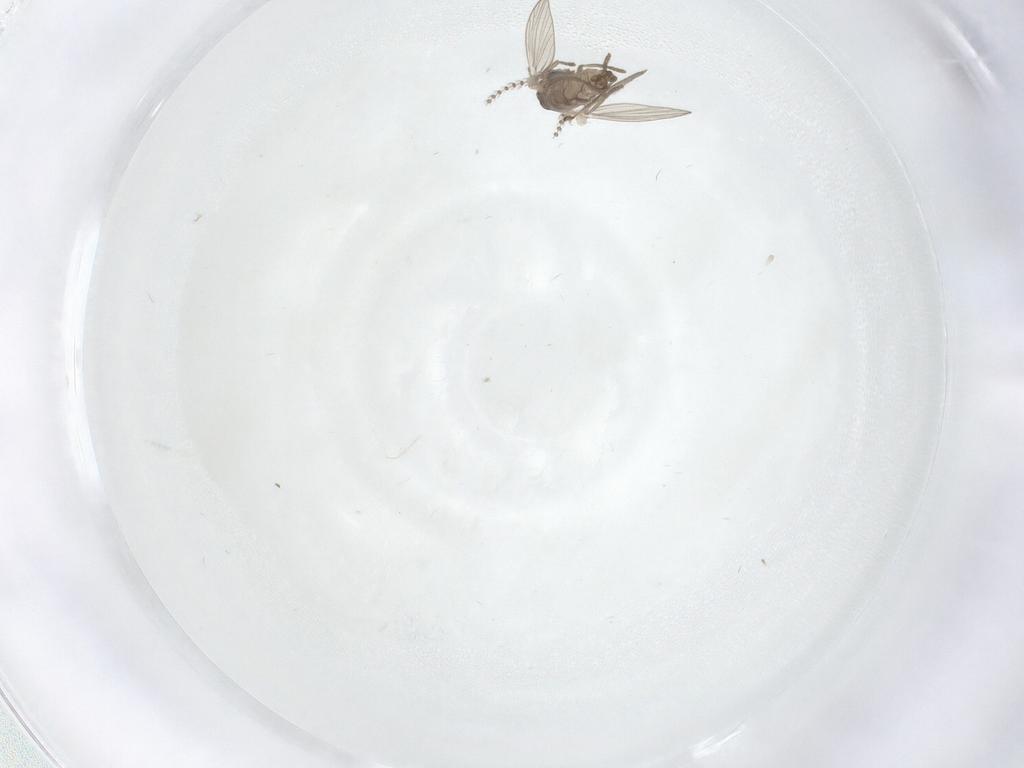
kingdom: Animalia
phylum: Arthropoda
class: Insecta
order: Diptera
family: Psychodidae
